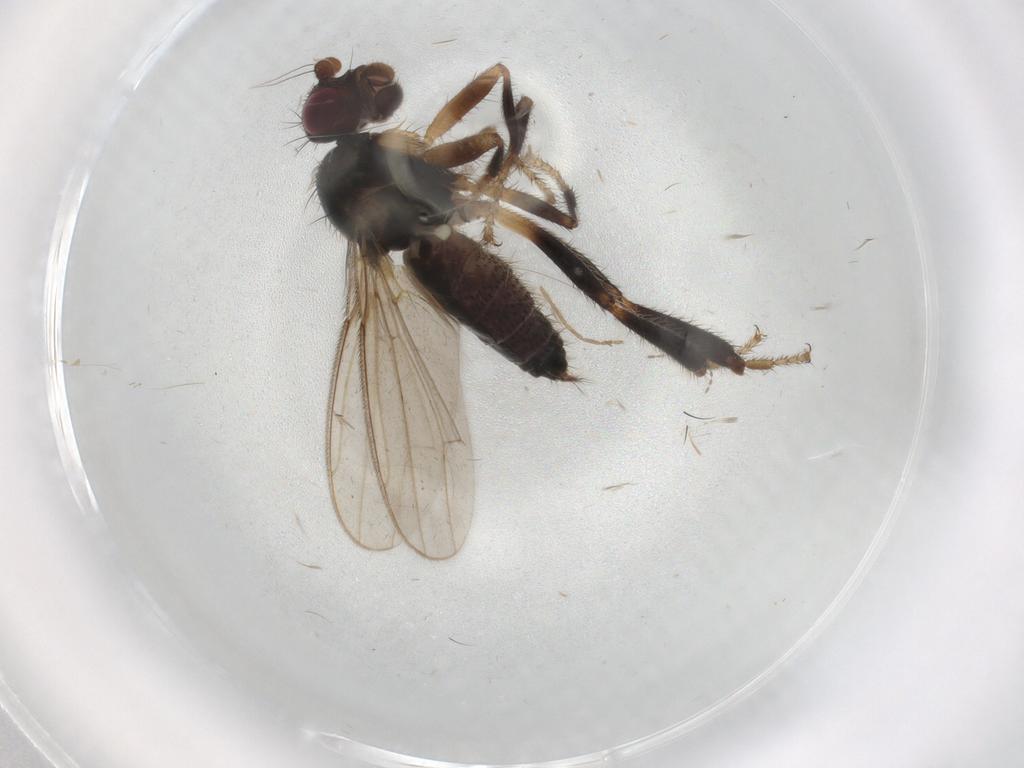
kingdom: Animalia
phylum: Arthropoda
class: Insecta
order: Diptera
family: Sphaeroceridae
